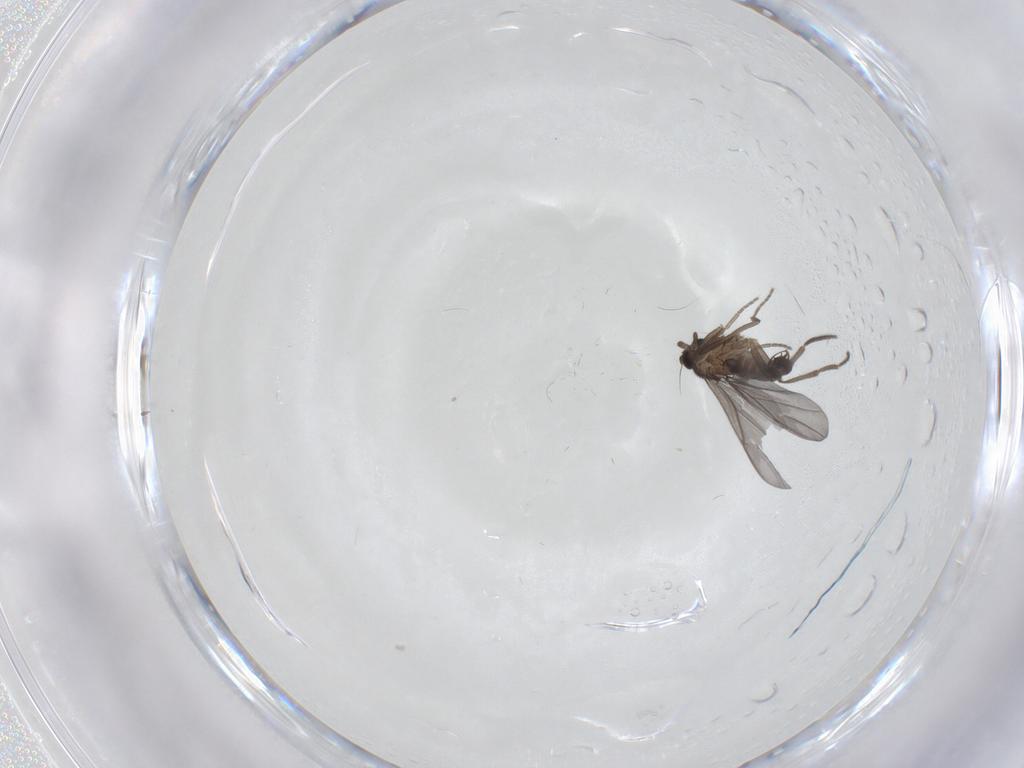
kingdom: Animalia
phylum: Arthropoda
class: Insecta
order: Diptera
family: Phoridae
